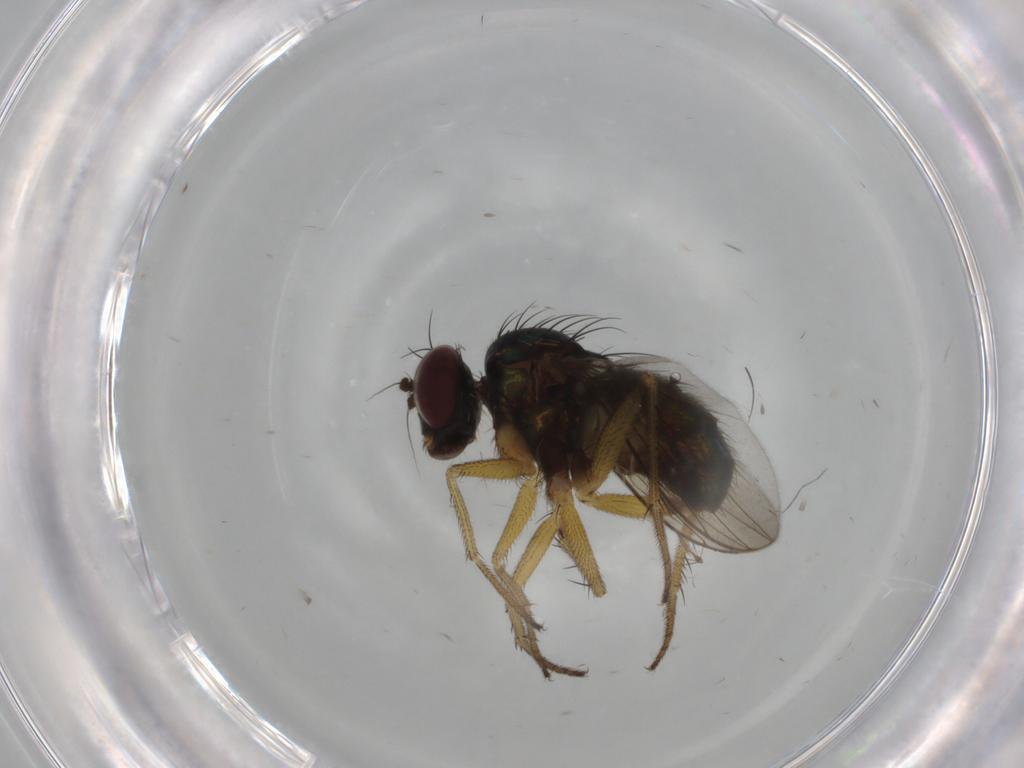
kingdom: Animalia
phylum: Arthropoda
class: Insecta
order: Diptera
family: Dolichopodidae
